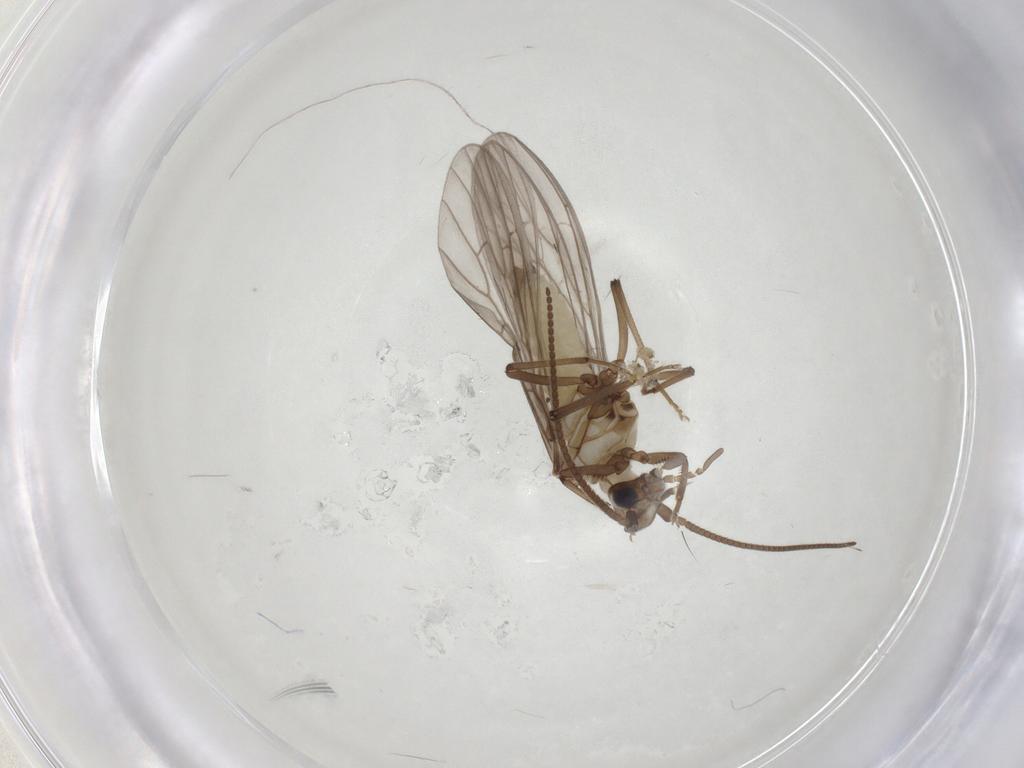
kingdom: Animalia
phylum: Arthropoda
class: Insecta
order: Neuroptera
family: Coniopterygidae
